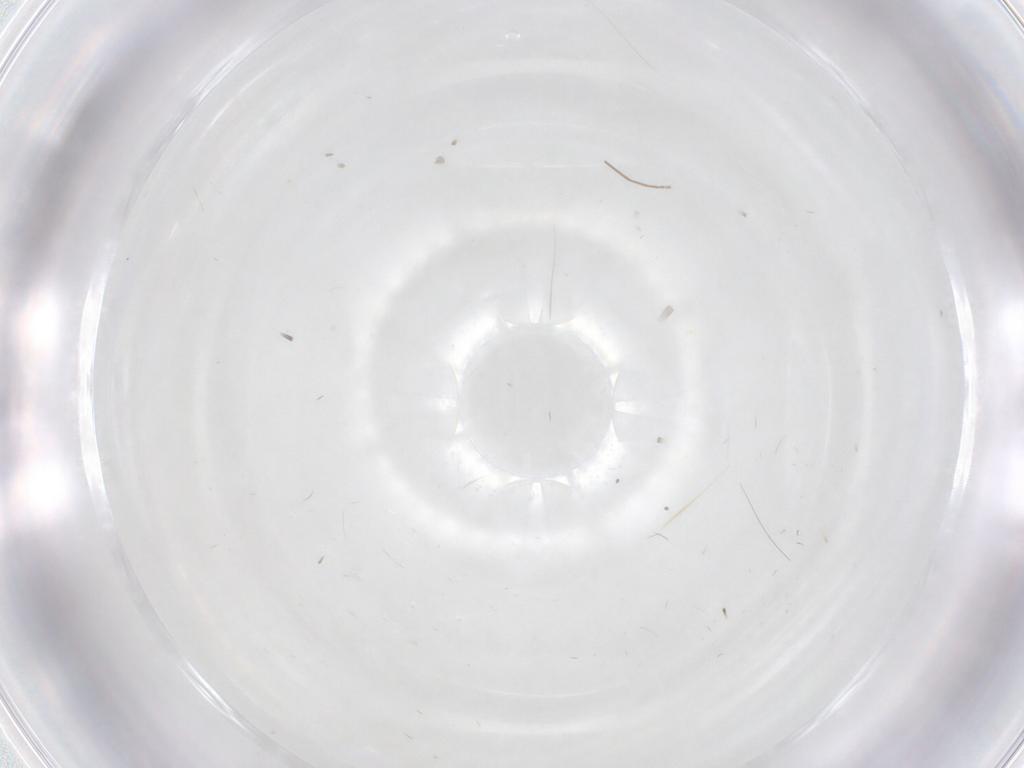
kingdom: Animalia
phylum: Arthropoda
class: Insecta
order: Diptera
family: Chironomidae
